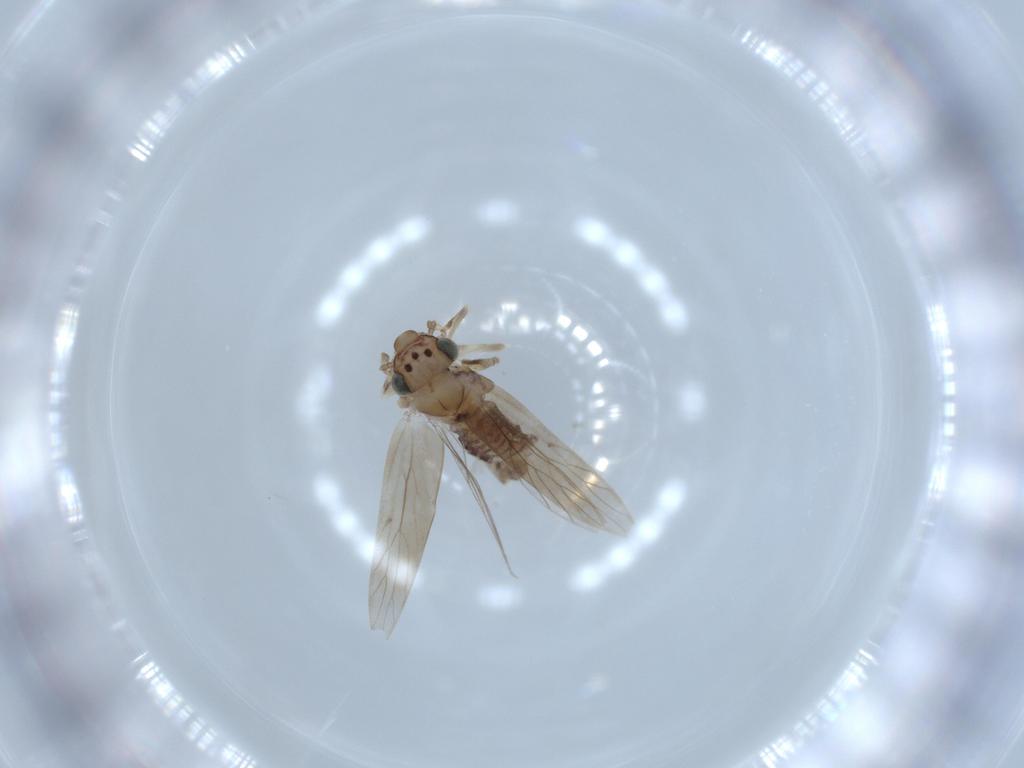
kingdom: Animalia
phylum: Arthropoda
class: Insecta
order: Psocodea
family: Lepidopsocidae
